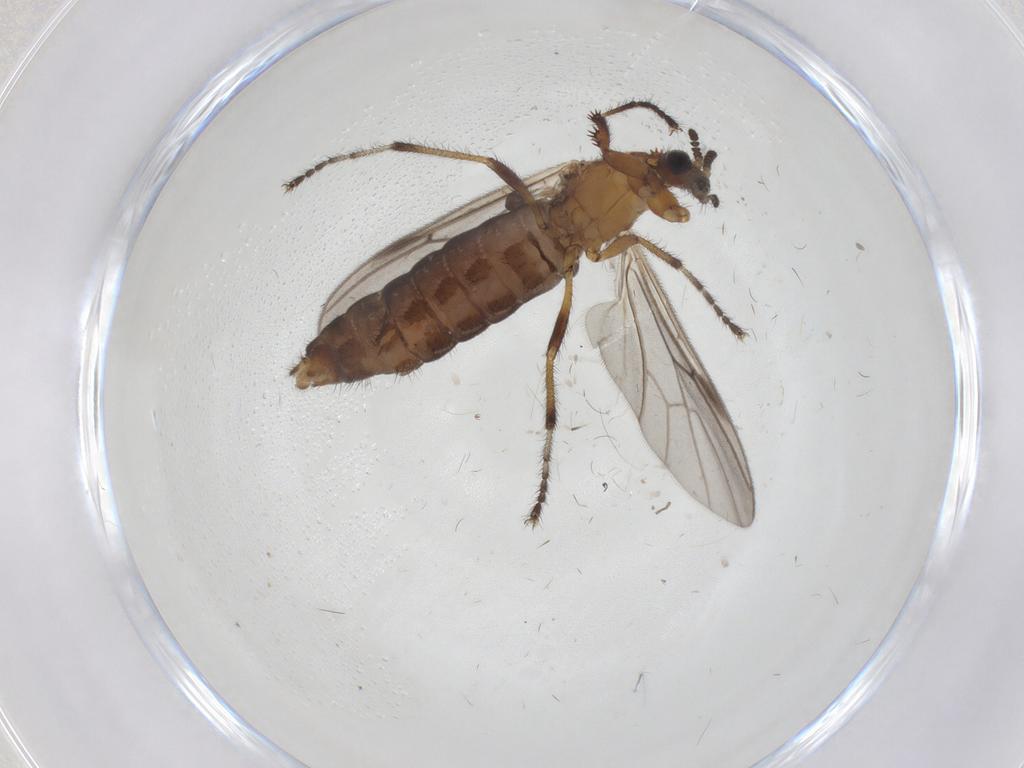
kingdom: Animalia
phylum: Arthropoda
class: Insecta
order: Diptera
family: Bibionidae
